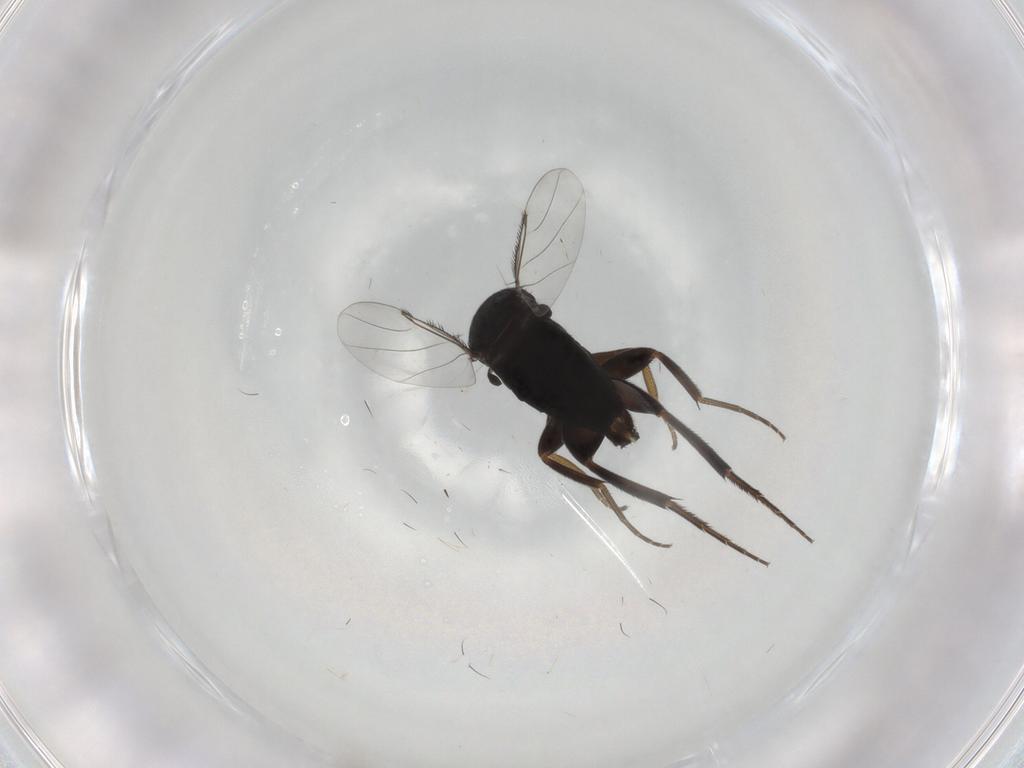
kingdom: Animalia
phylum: Arthropoda
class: Insecta
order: Diptera
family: Phoridae
